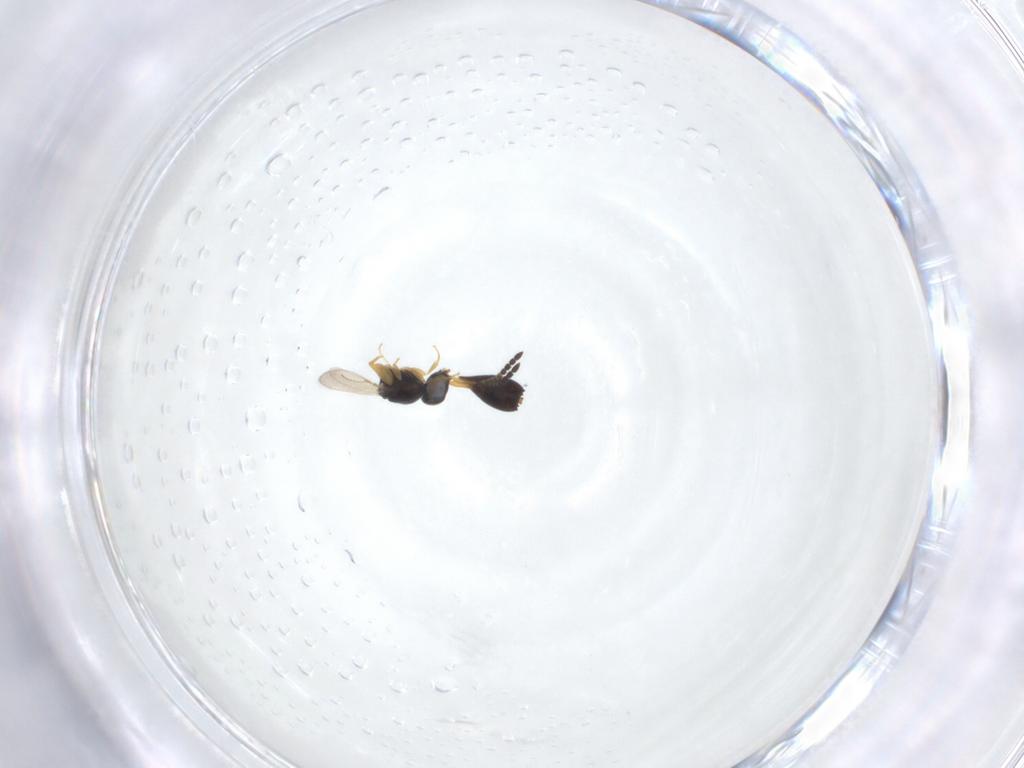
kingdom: Animalia
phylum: Arthropoda
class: Insecta
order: Hymenoptera
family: Ceraphronidae
